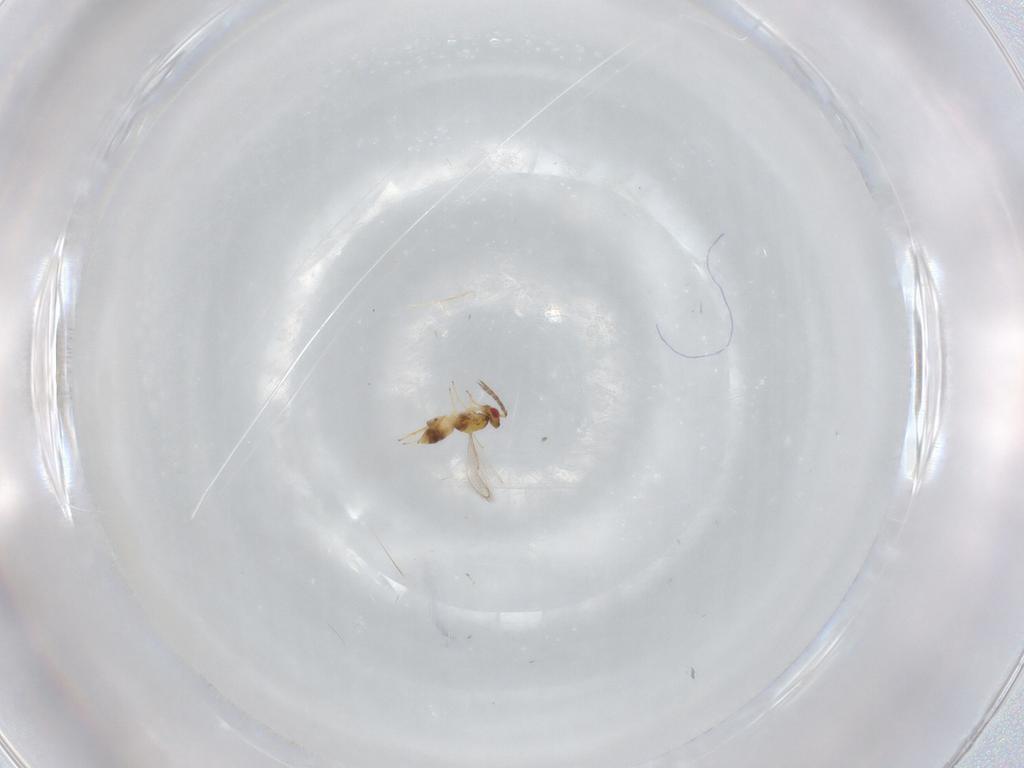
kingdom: Animalia
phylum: Arthropoda
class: Insecta
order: Hymenoptera
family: Eulophidae
